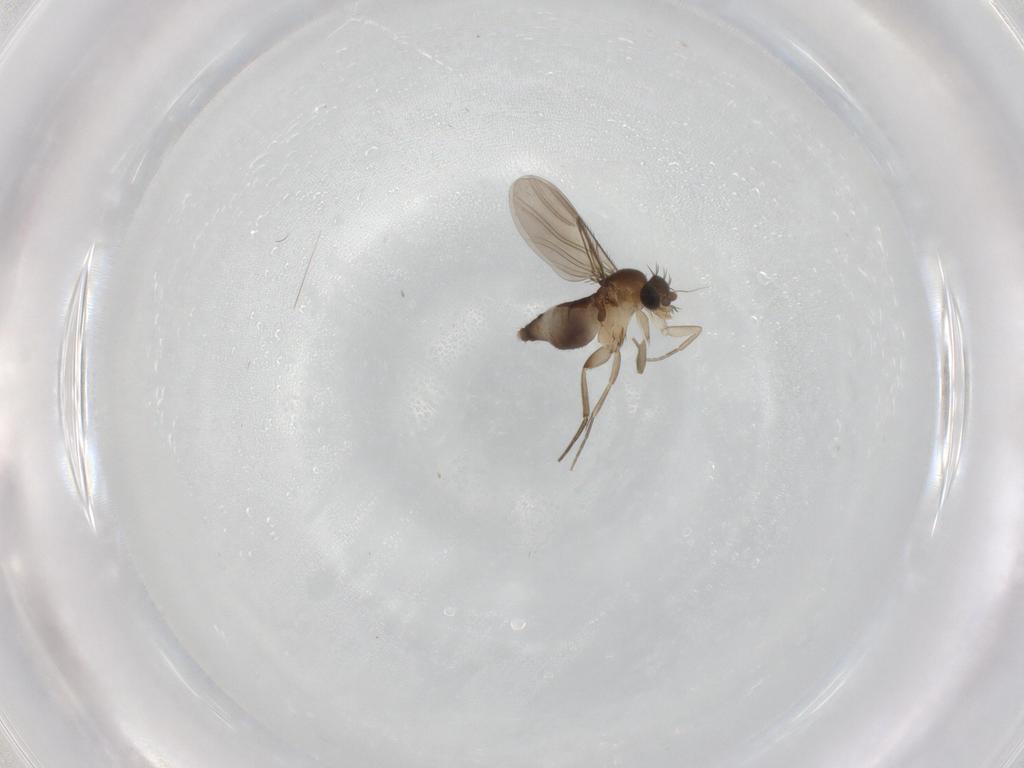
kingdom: Animalia
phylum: Arthropoda
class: Insecta
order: Diptera
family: Phoridae
